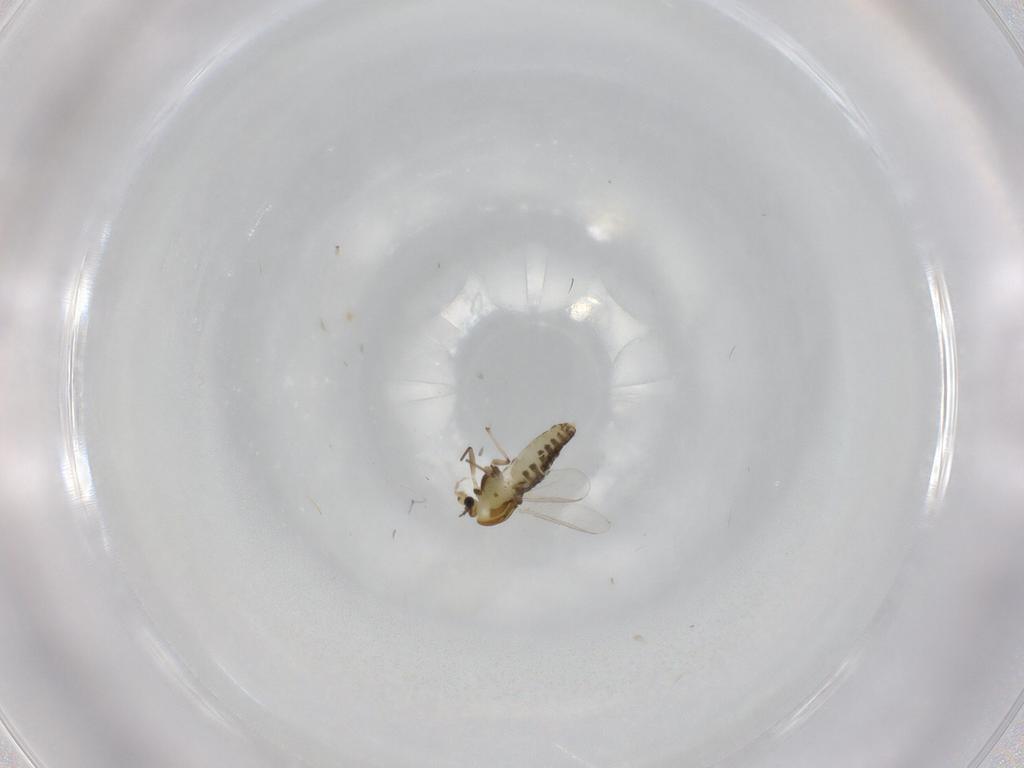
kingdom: Animalia
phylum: Arthropoda
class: Insecta
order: Diptera
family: Chironomidae
